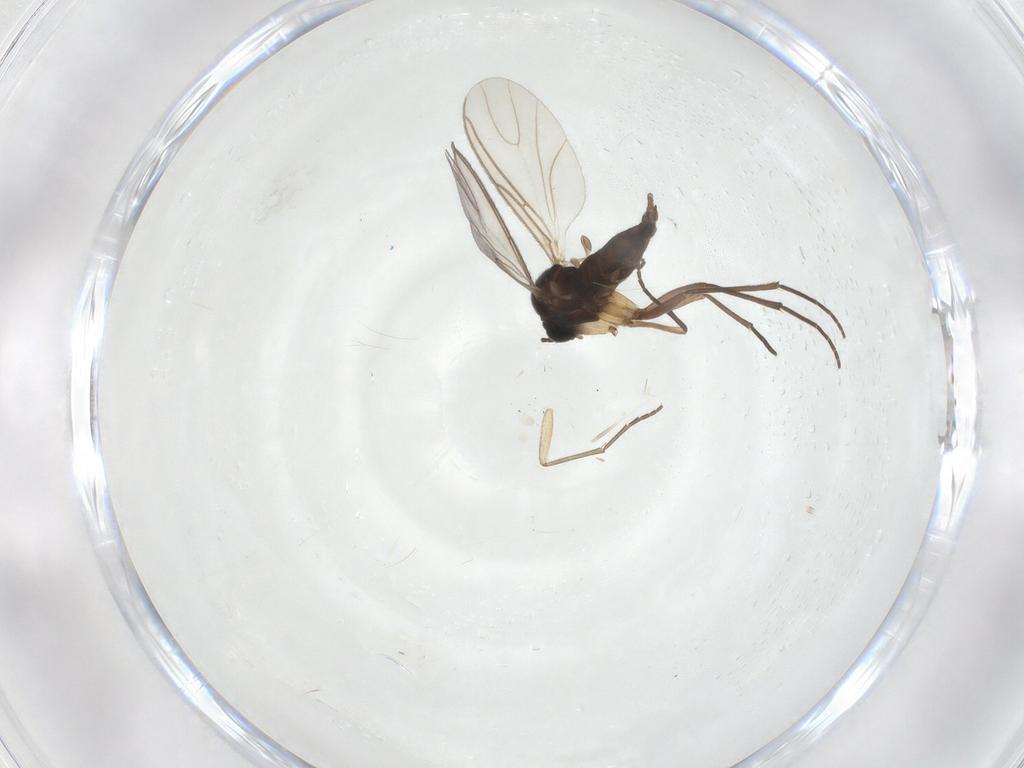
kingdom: Animalia
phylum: Arthropoda
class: Insecta
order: Diptera
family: Sciaridae
